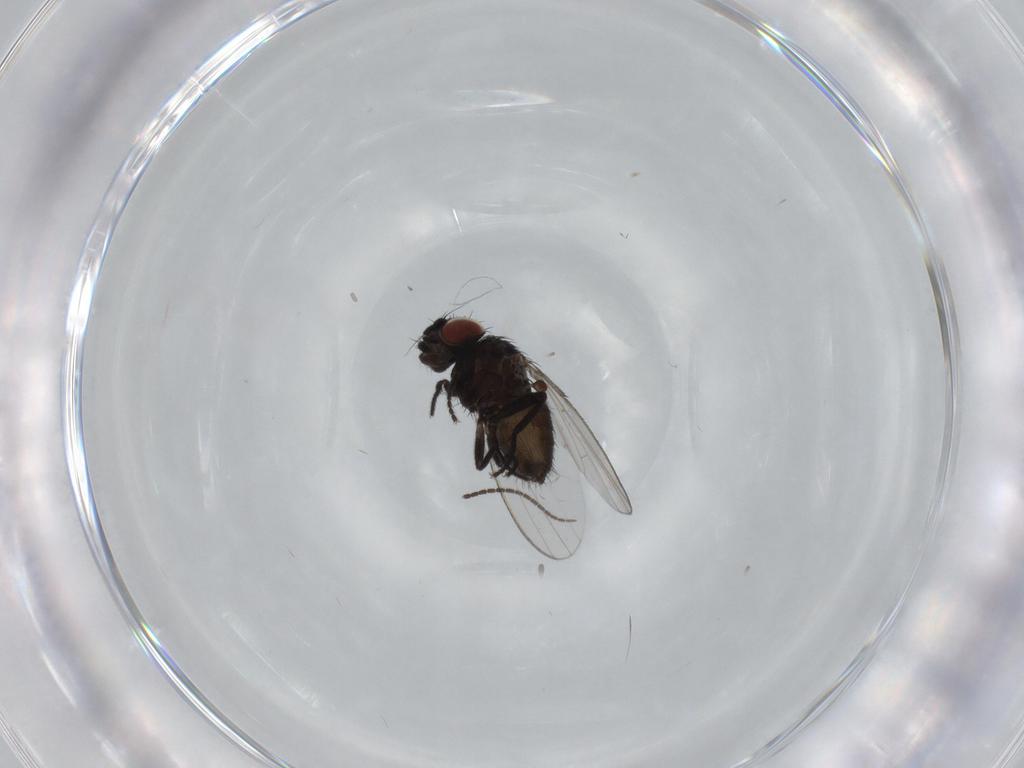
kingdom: Animalia
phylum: Arthropoda
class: Insecta
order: Diptera
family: Milichiidae
